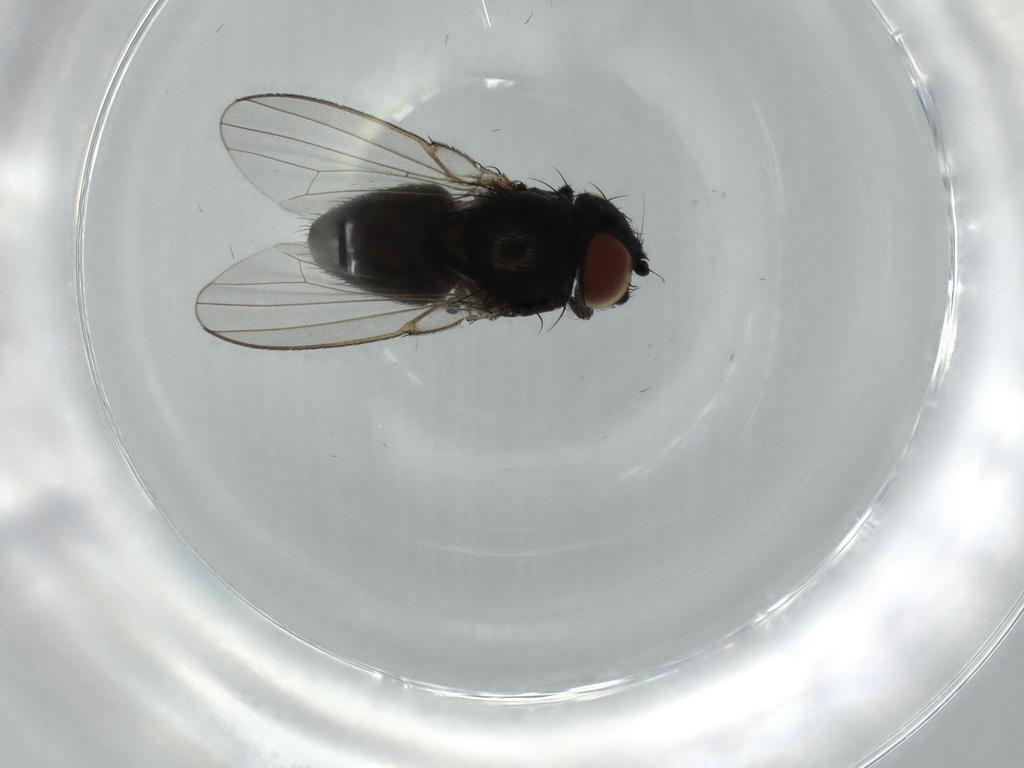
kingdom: Animalia
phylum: Arthropoda
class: Insecta
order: Diptera
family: Milichiidae
